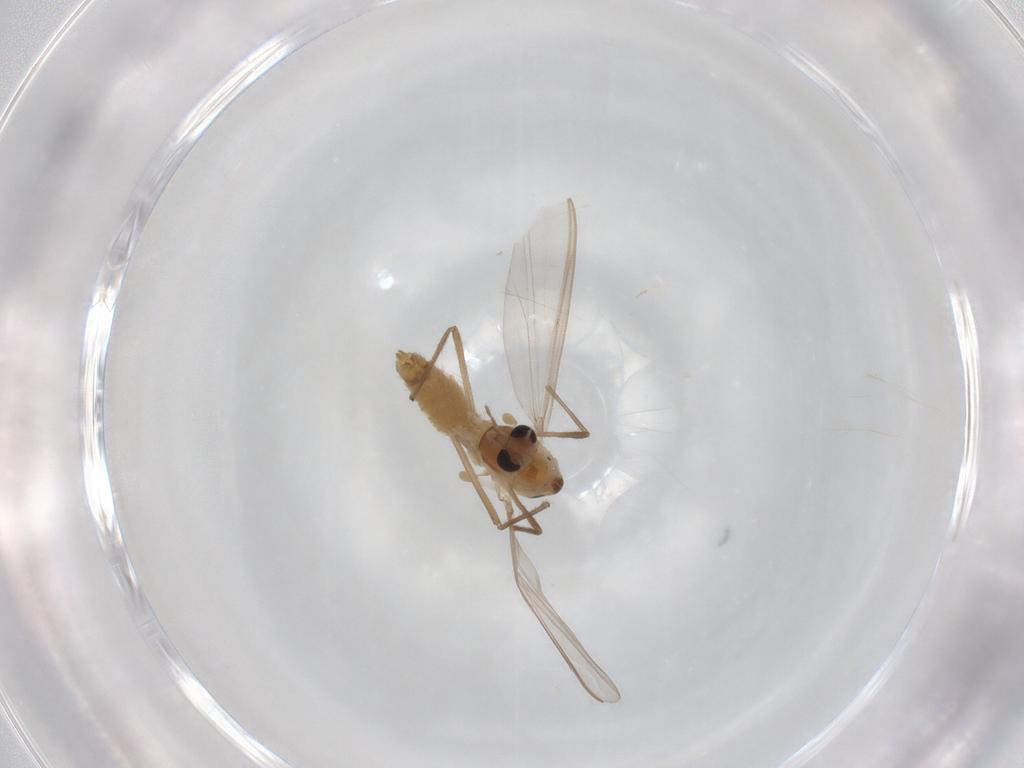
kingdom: Animalia
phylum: Arthropoda
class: Insecta
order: Diptera
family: Chironomidae
